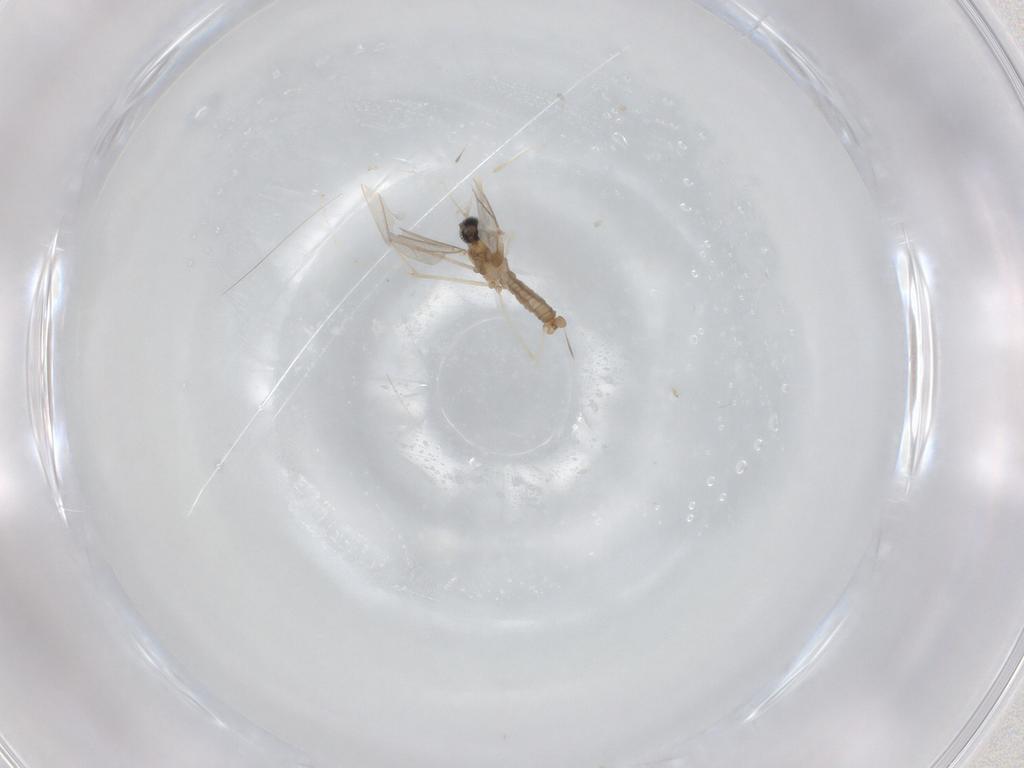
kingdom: Animalia
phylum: Arthropoda
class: Insecta
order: Diptera
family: Cecidomyiidae
